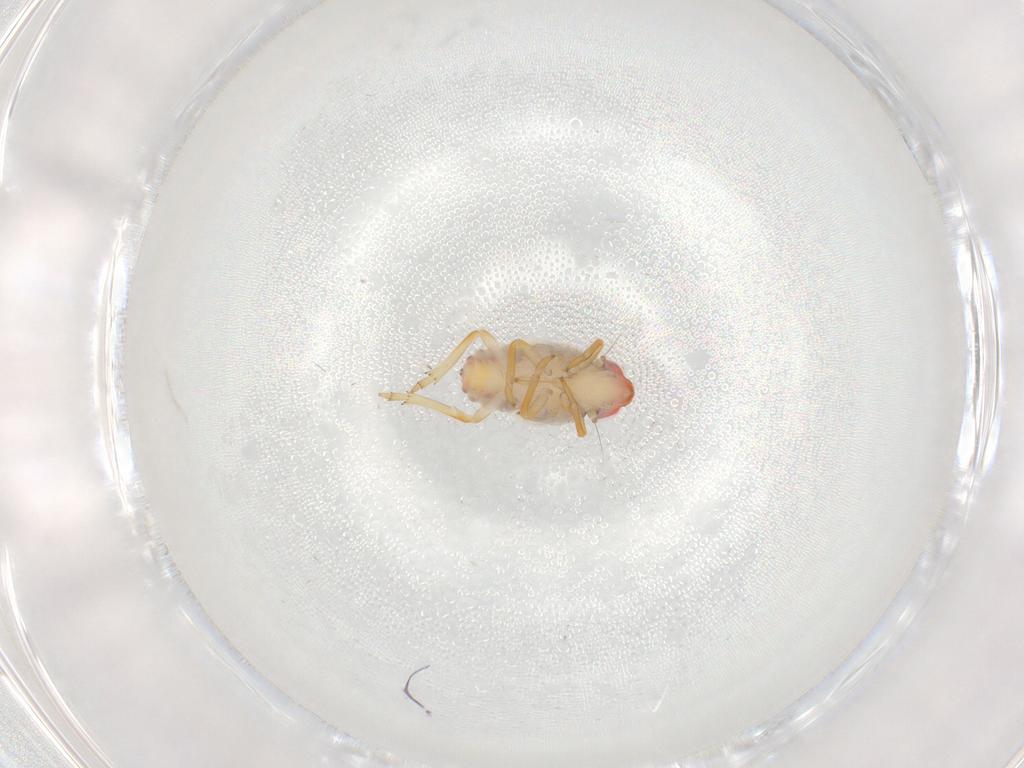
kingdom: Animalia
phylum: Arthropoda
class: Insecta
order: Hemiptera
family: Issidae
